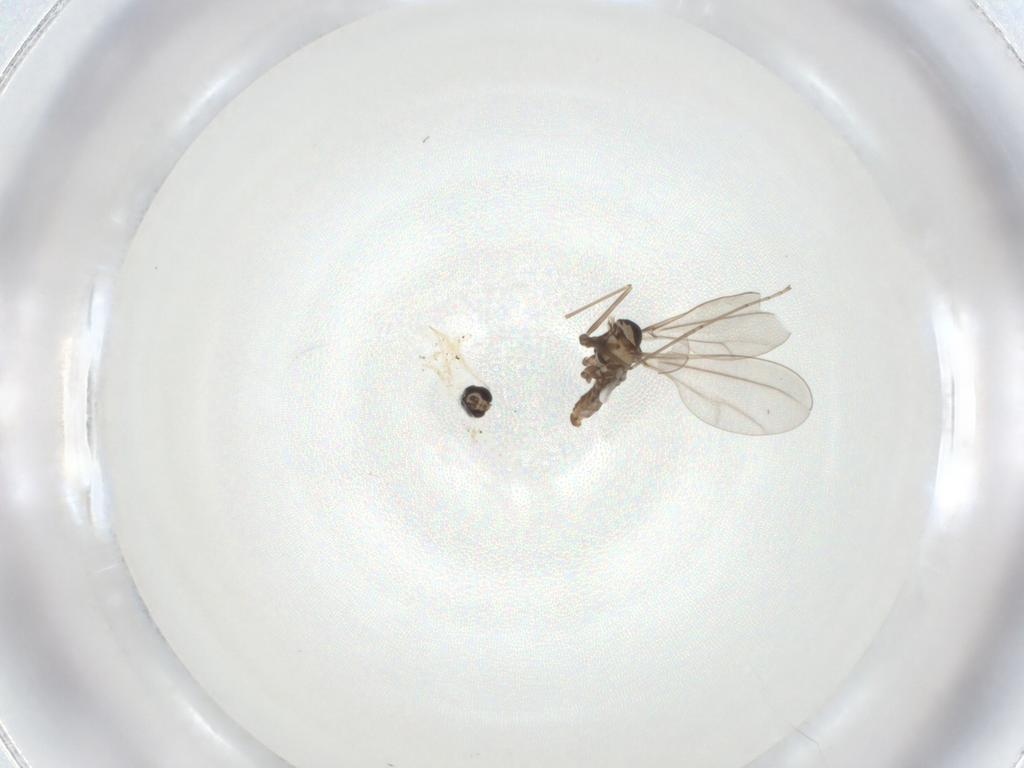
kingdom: Animalia
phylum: Arthropoda
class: Insecta
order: Diptera
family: Cecidomyiidae
